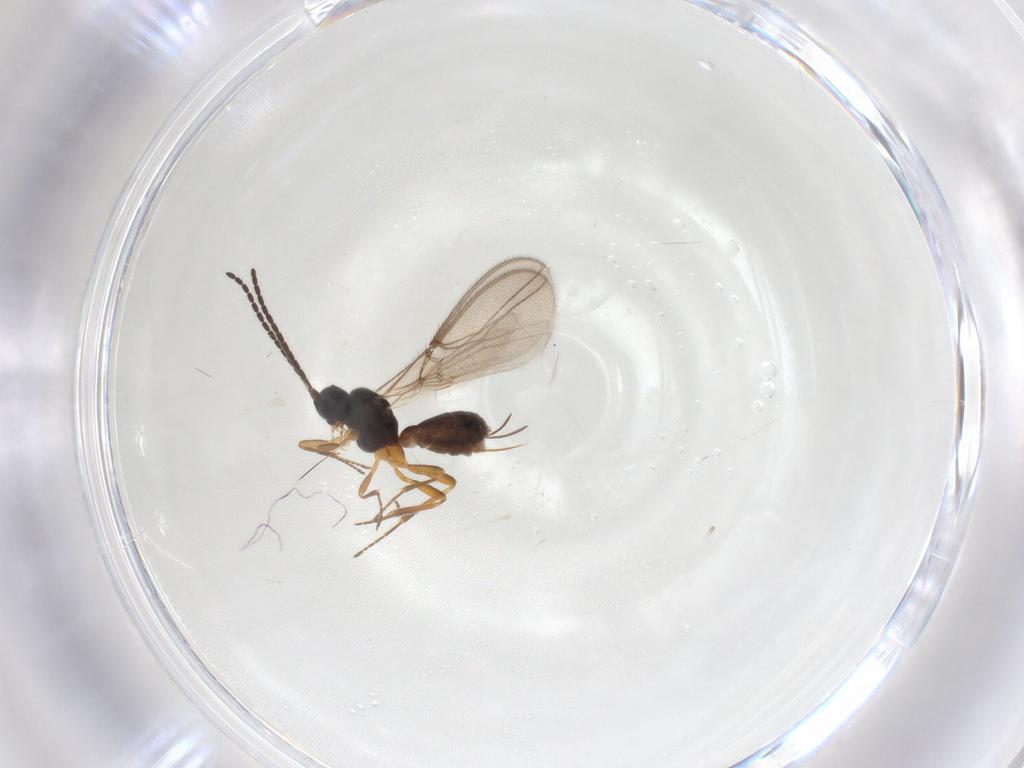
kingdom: Animalia
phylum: Arthropoda
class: Insecta
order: Hymenoptera
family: Braconidae
